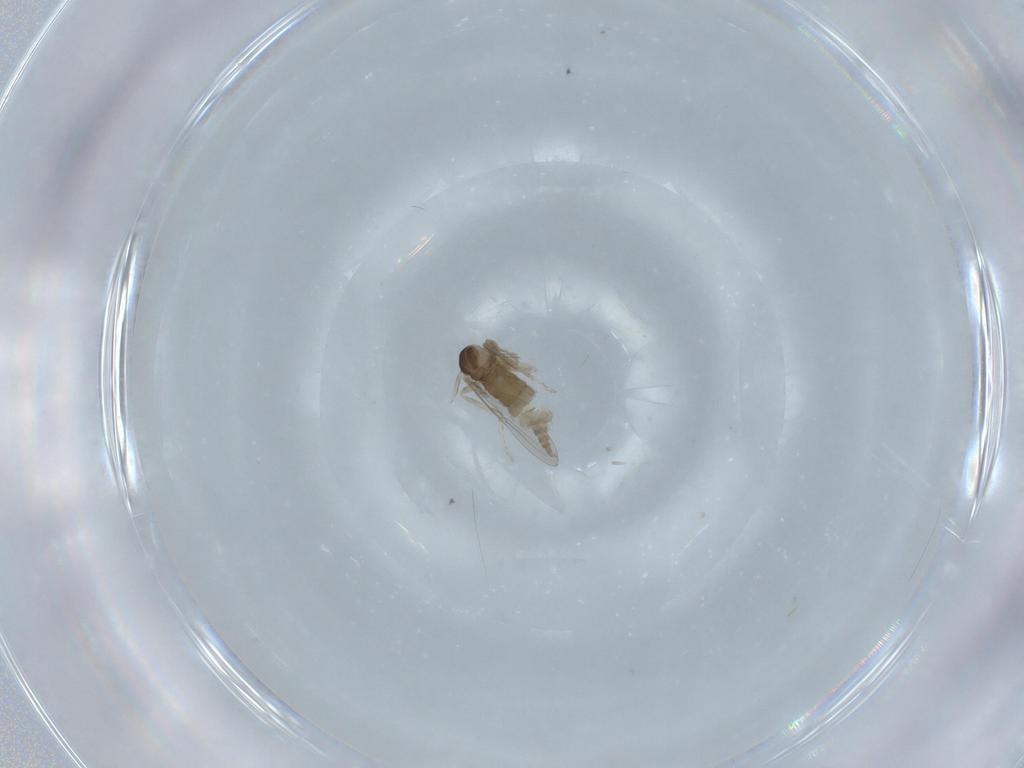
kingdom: Animalia
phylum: Arthropoda
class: Insecta
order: Diptera
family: Cecidomyiidae
